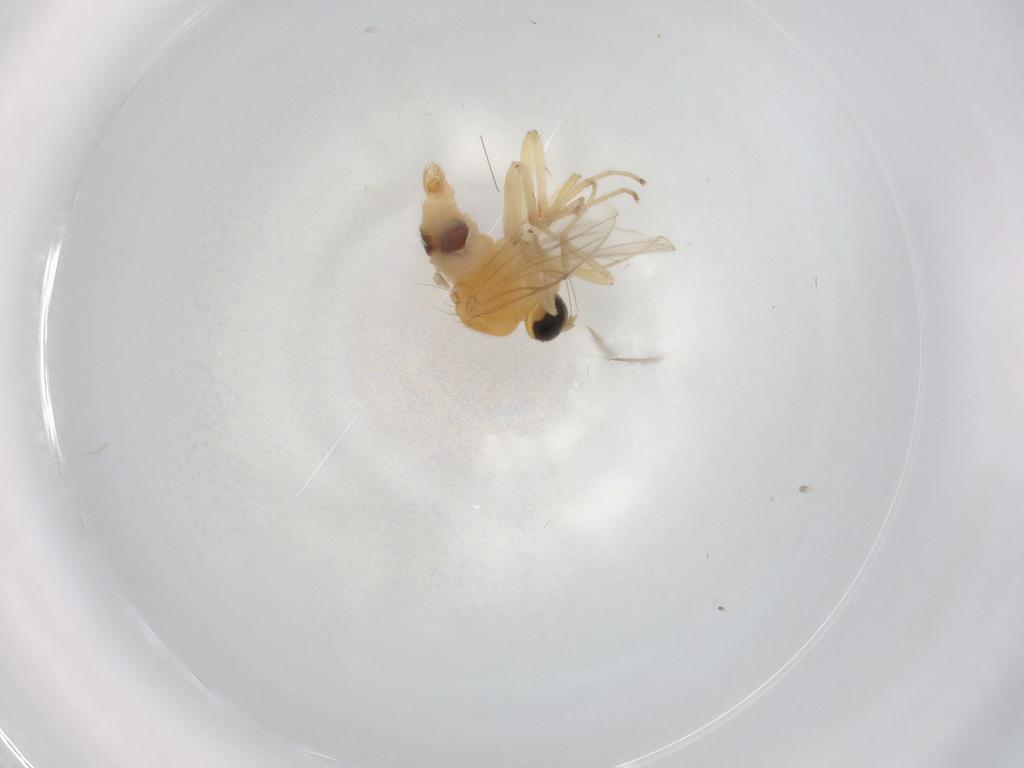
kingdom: Animalia
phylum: Arthropoda
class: Insecta
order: Diptera
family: Hybotidae
